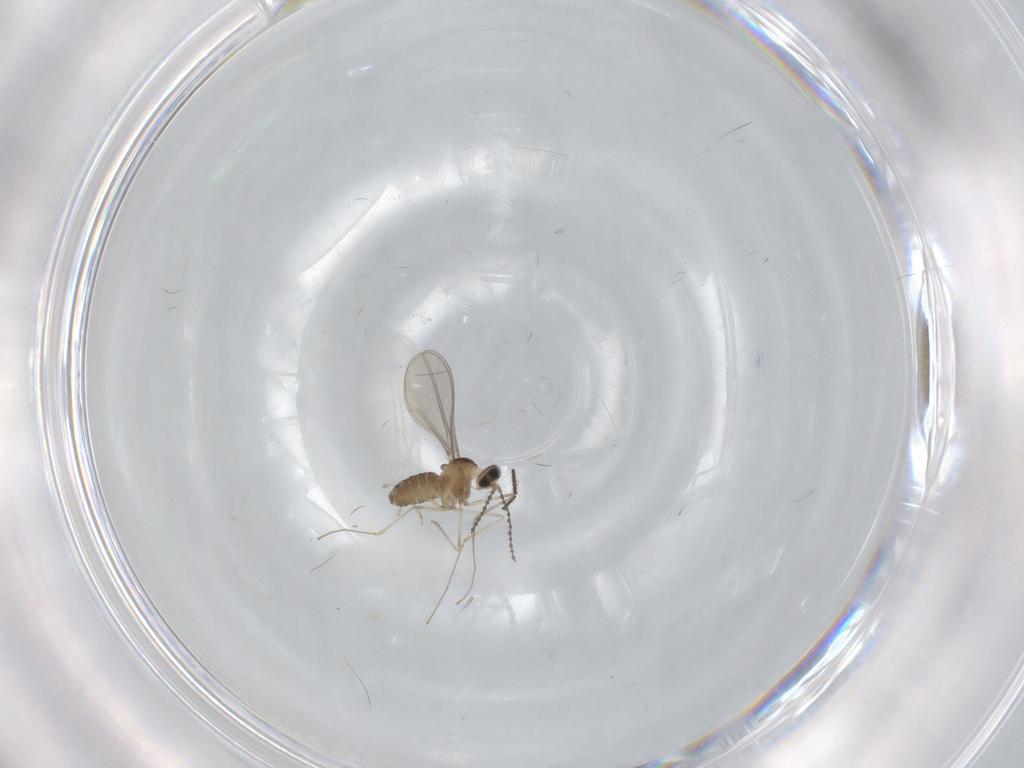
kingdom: Animalia
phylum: Arthropoda
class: Insecta
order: Diptera
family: Psychodidae
